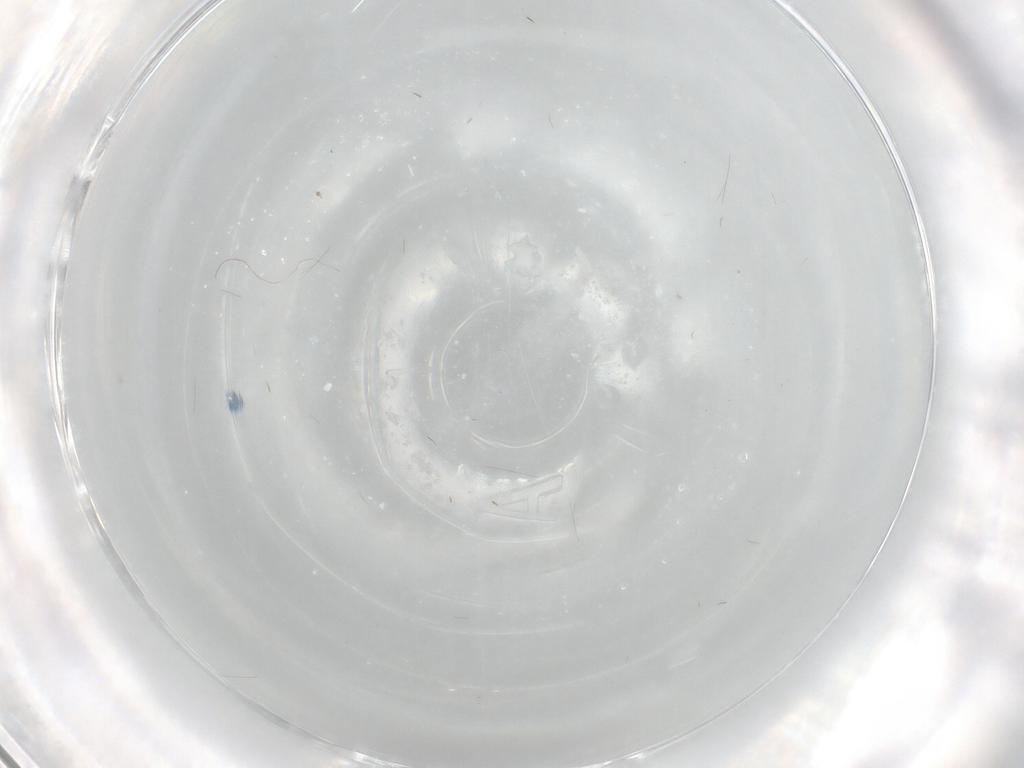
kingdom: Animalia
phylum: Arthropoda
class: Insecta
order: Diptera
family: Cecidomyiidae
